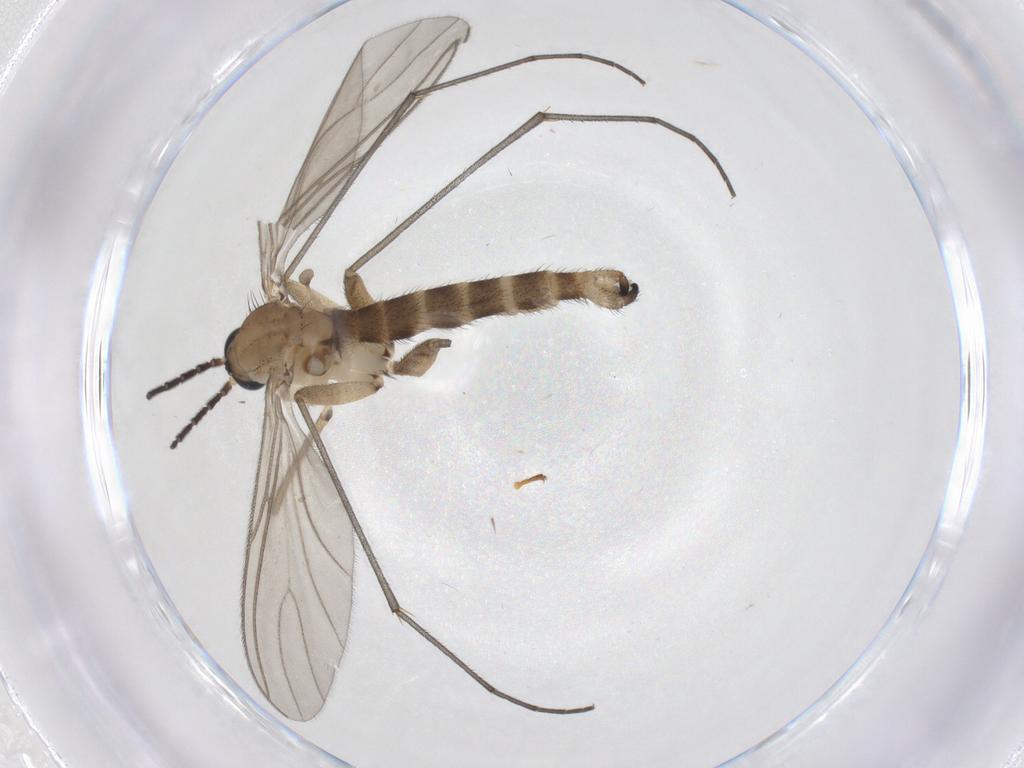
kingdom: Animalia
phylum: Arthropoda
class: Insecta
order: Diptera
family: Sciaridae
